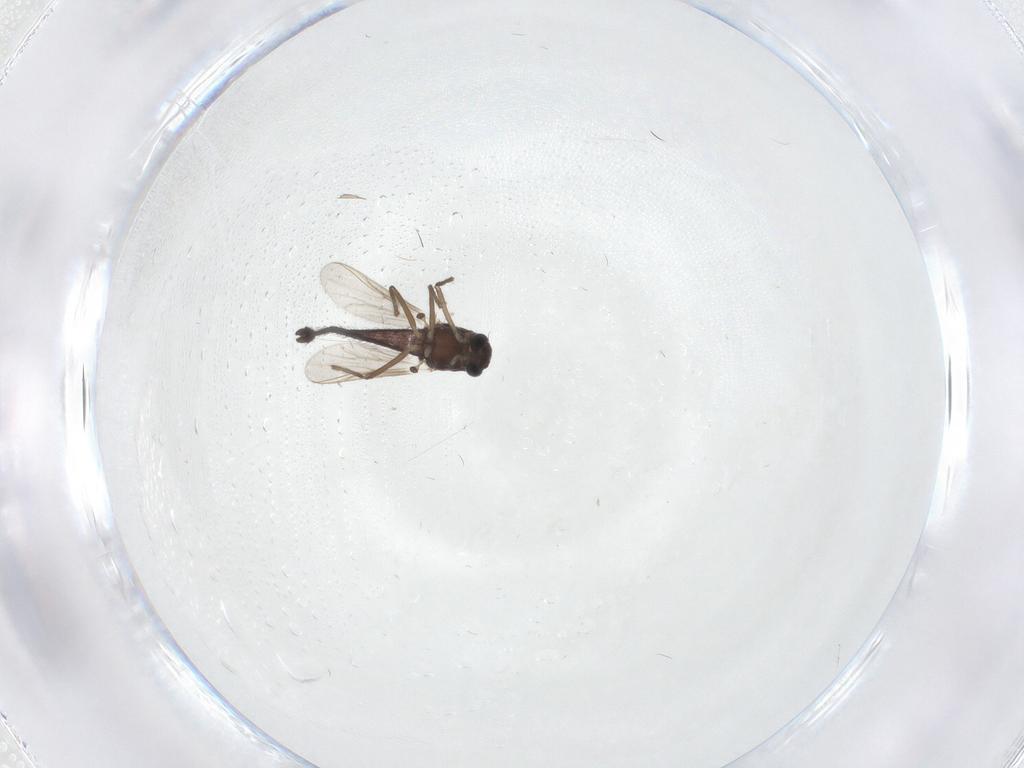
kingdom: Animalia
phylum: Arthropoda
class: Insecta
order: Diptera
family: Chironomidae
